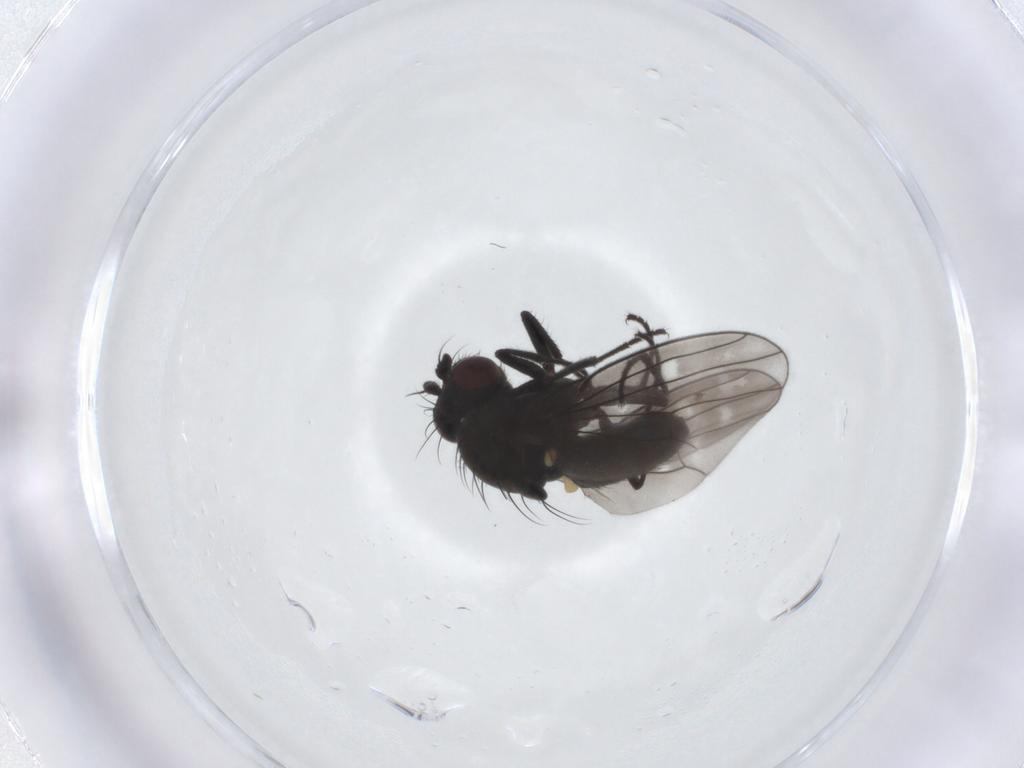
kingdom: Animalia
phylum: Arthropoda
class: Insecta
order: Diptera
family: Ephydridae
